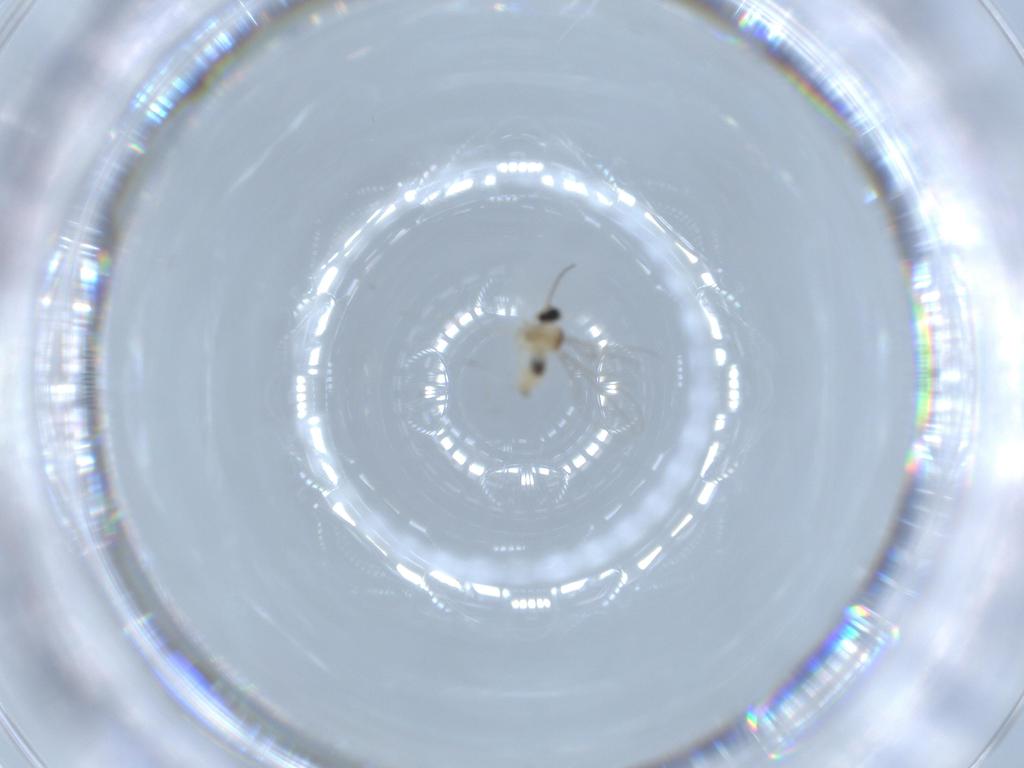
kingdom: Animalia
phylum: Arthropoda
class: Insecta
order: Diptera
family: Cecidomyiidae
